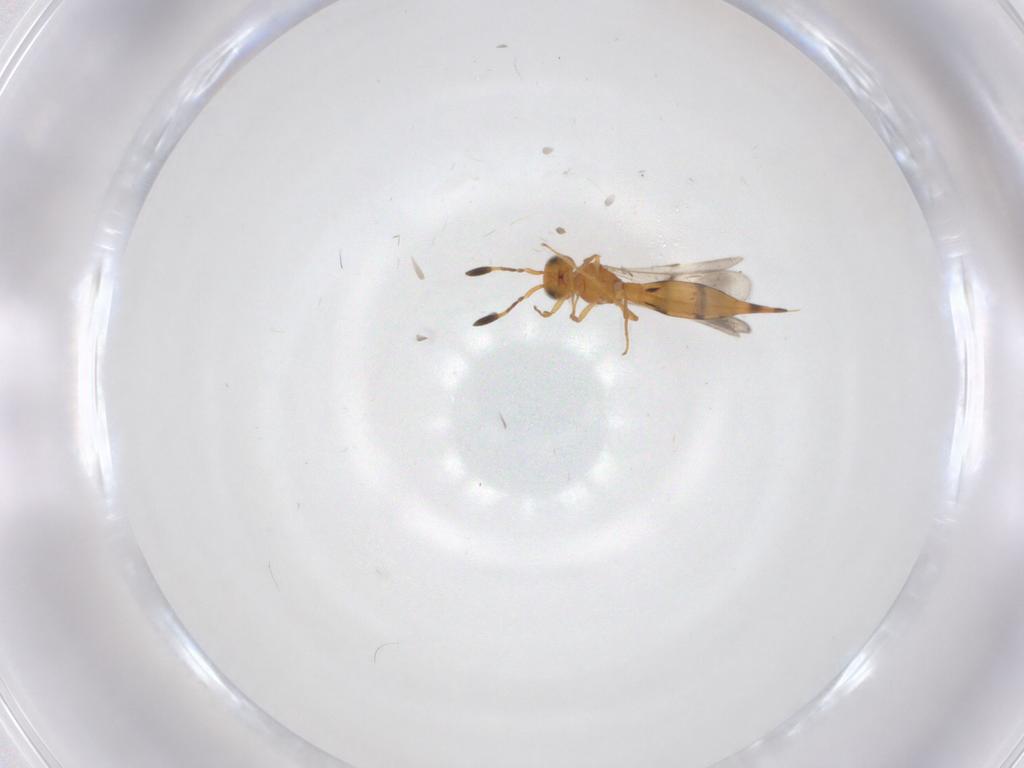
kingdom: Animalia
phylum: Arthropoda
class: Insecta
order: Hymenoptera
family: Scelionidae
